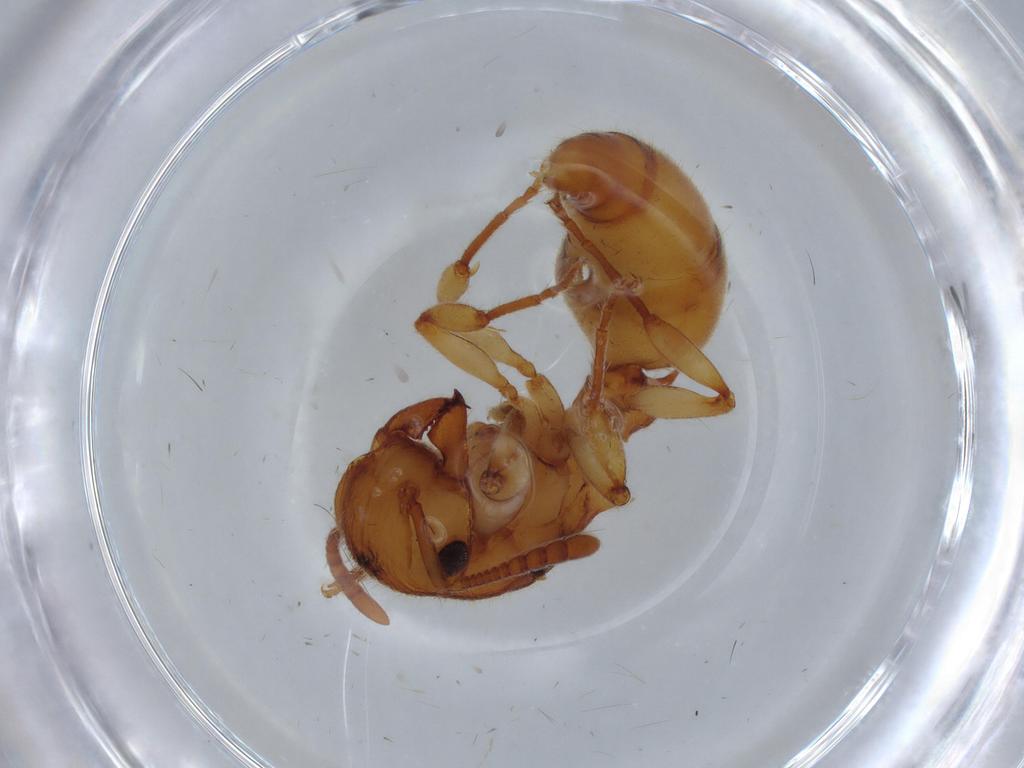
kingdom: Animalia
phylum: Arthropoda
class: Insecta
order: Hymenoptera
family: Formicidae
